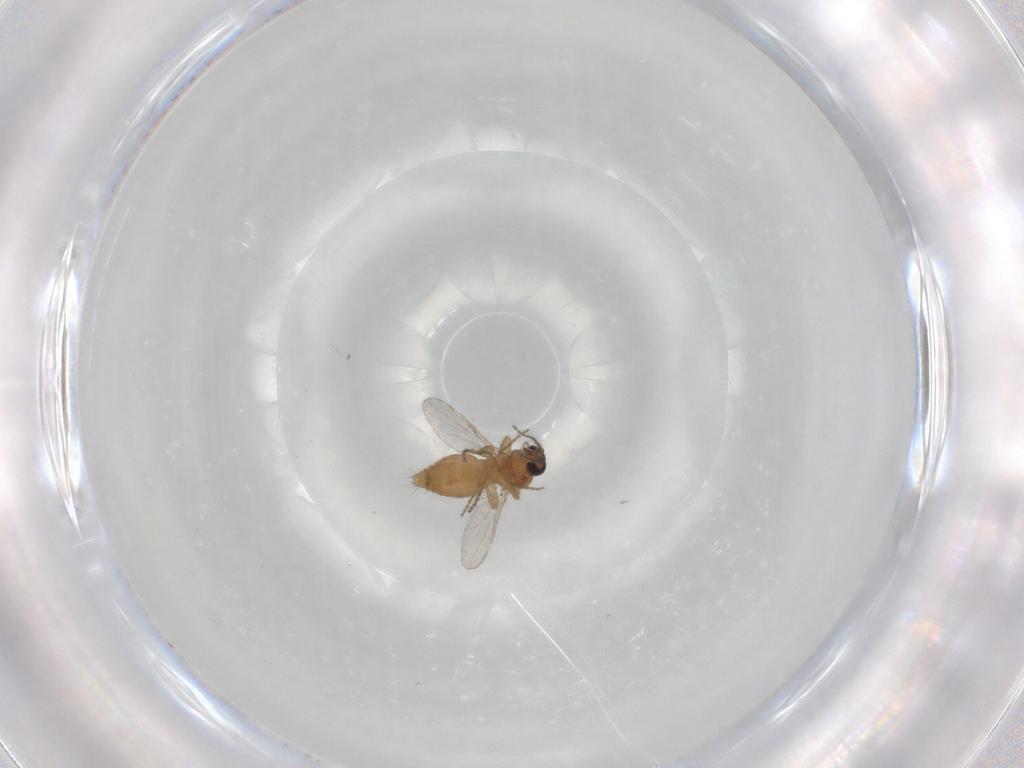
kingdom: Animalia
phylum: Arthropoda
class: Insecta
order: Diptera
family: Ceratopogonidae
